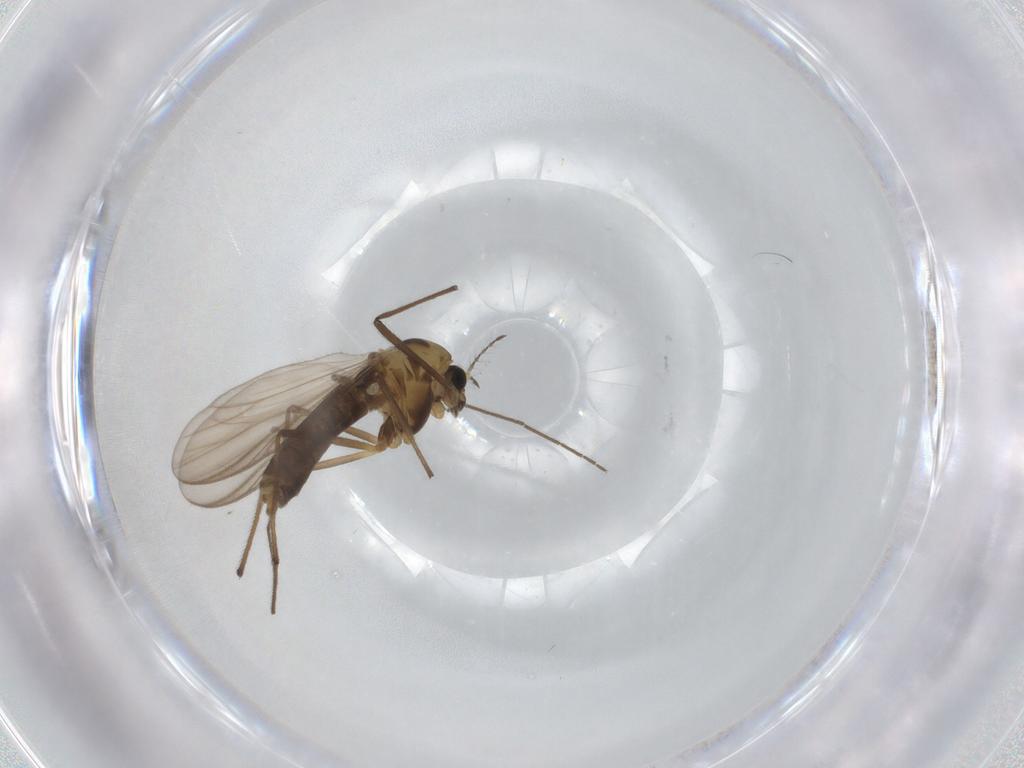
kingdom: Animalia
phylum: Arthropoda
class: Insecta
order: Diptera
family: Chironomidae
